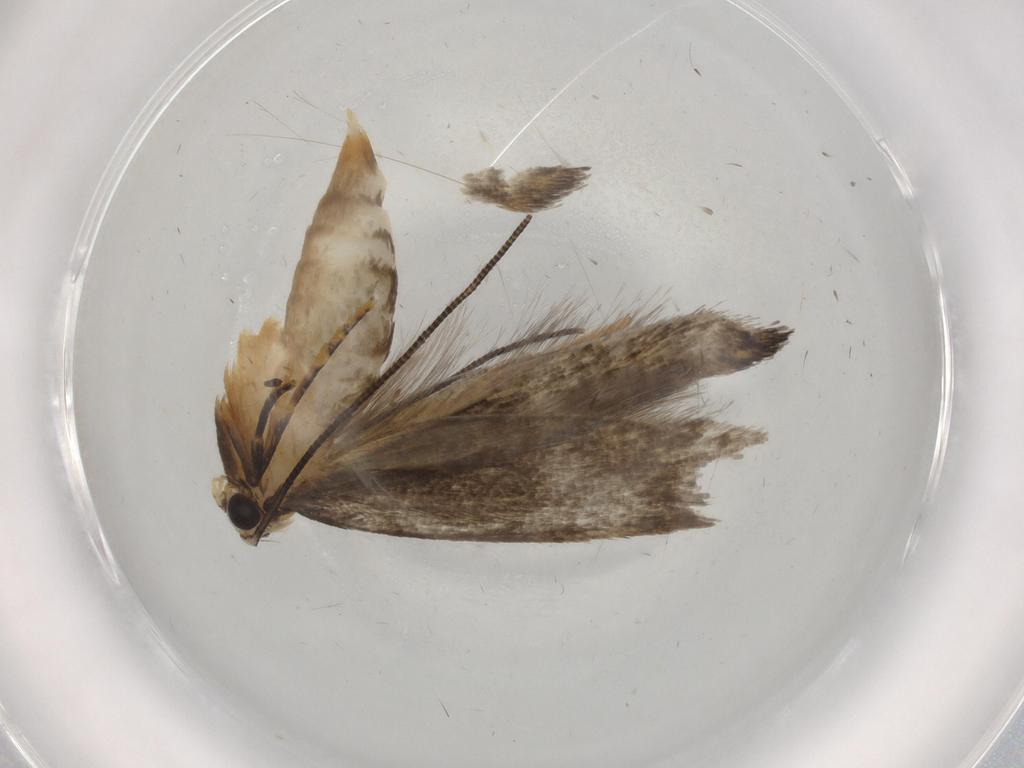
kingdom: Animalia
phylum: Arthropoda
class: Insecta
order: Lepidoptera
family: Tineidae
